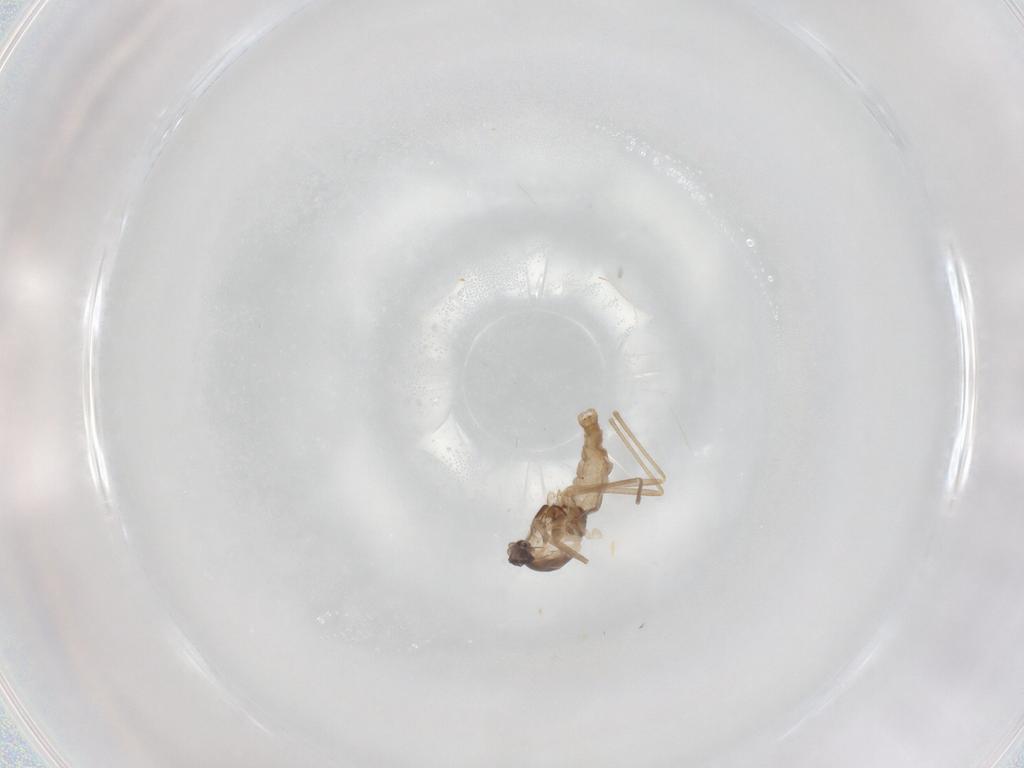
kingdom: Animalia
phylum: Arthropoda
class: Insecta
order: Diptera
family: Cecidomyiidae
